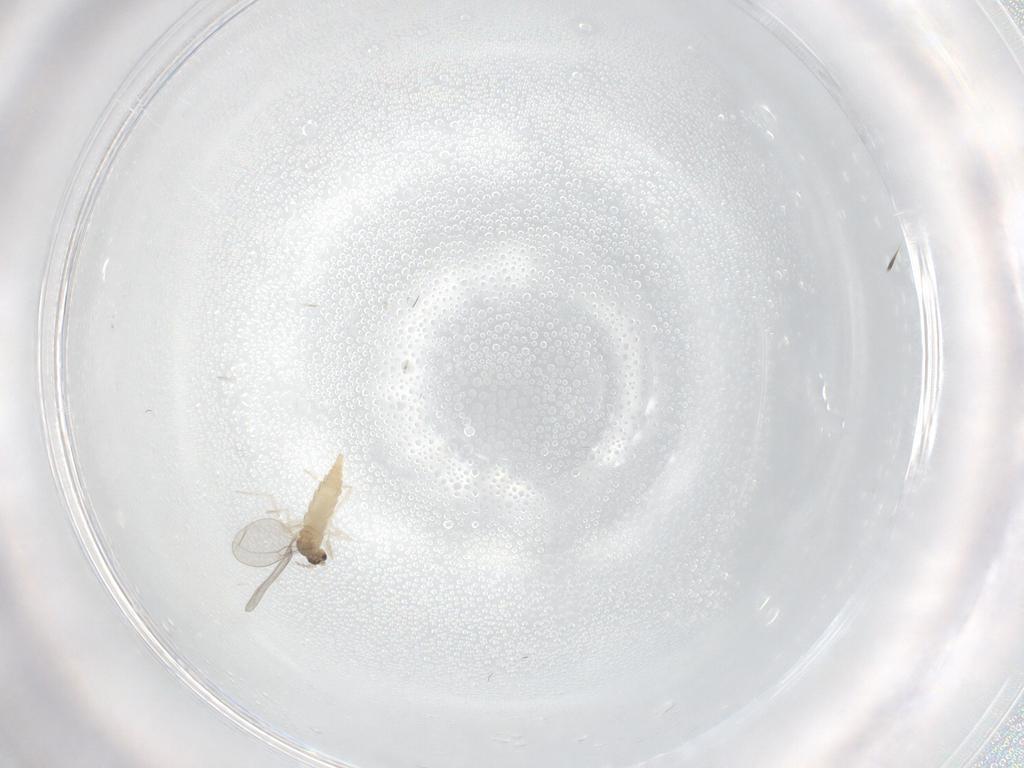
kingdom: Animalia
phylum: Arthropoda
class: Insecta
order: Diptera
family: Chironomidae
